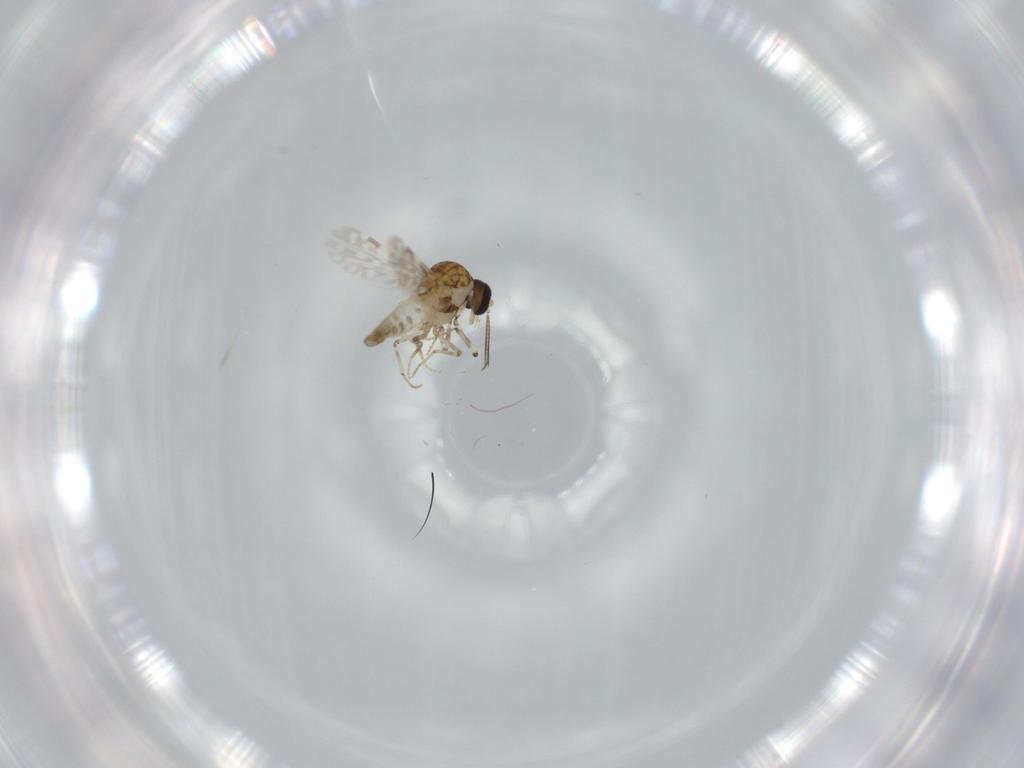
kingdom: Animalia
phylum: Arthropoda
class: Insecta
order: Diptera
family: Ceratopogonidae
